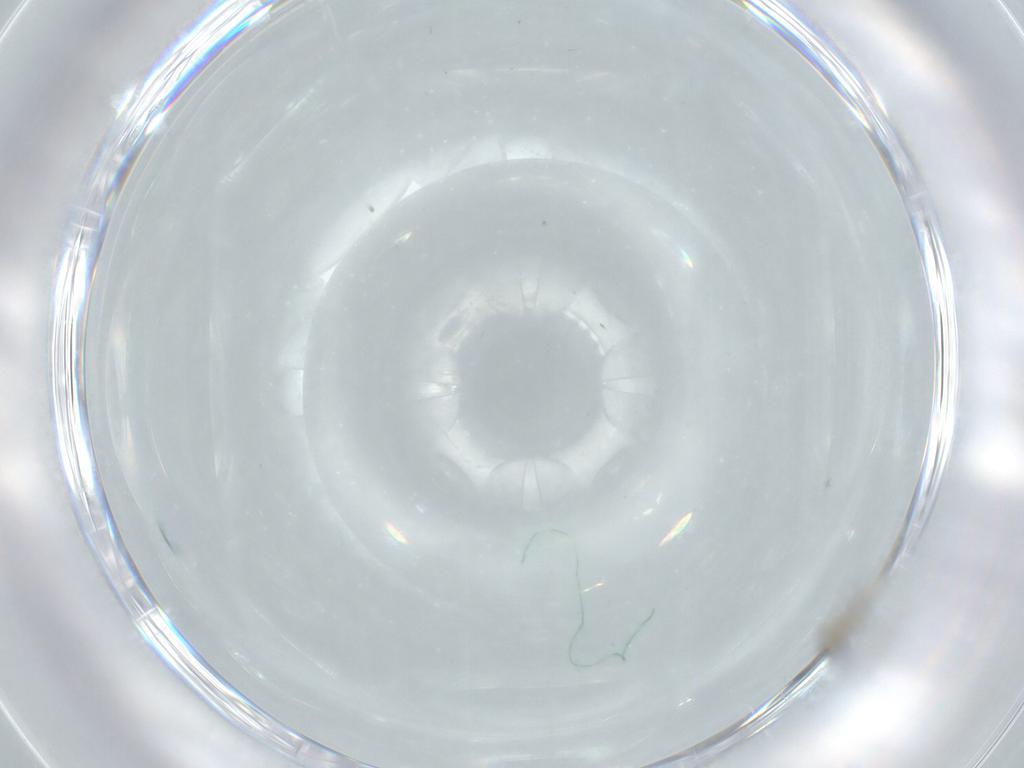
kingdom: Animalia
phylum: Arthropoda
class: Insecta
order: Diptera
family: Cecidomyiidae
